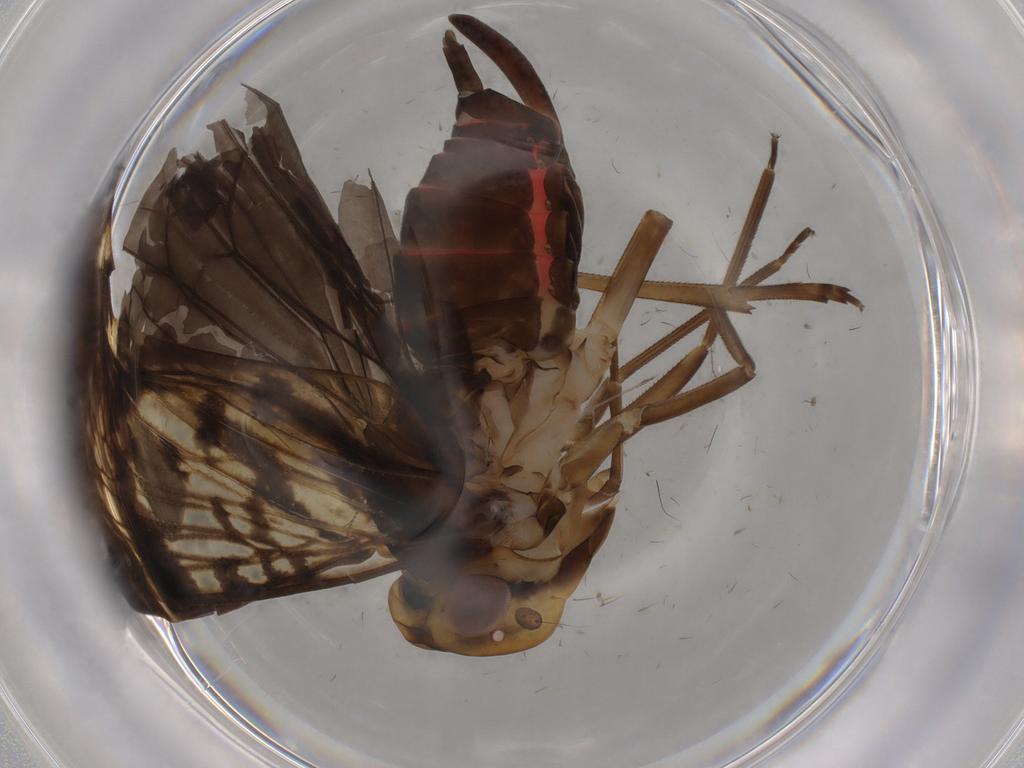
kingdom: Animalia
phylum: Arthropoda
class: Insecta
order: Hemiptera
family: Cixiidae
